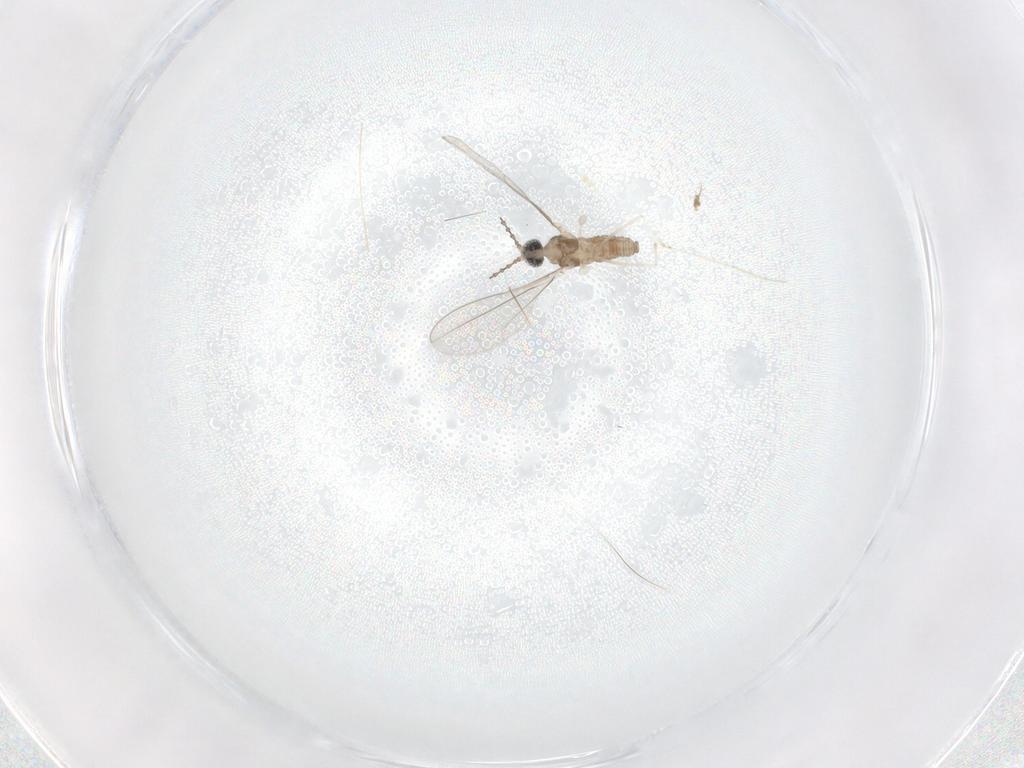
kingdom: Animalia
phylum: Arthropoda
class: Insecta
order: Diptera
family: Cecidomyiidae
